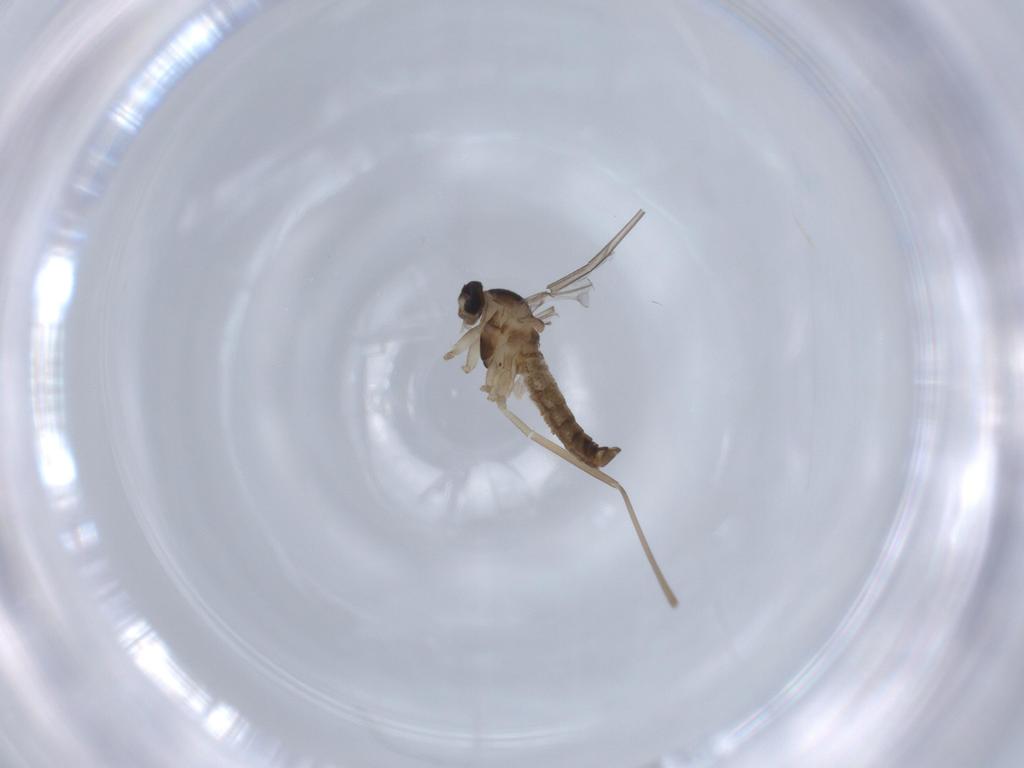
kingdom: Animalia
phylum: Arthropoda
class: Insecta
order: Diptera
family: Cecidomyiidae
